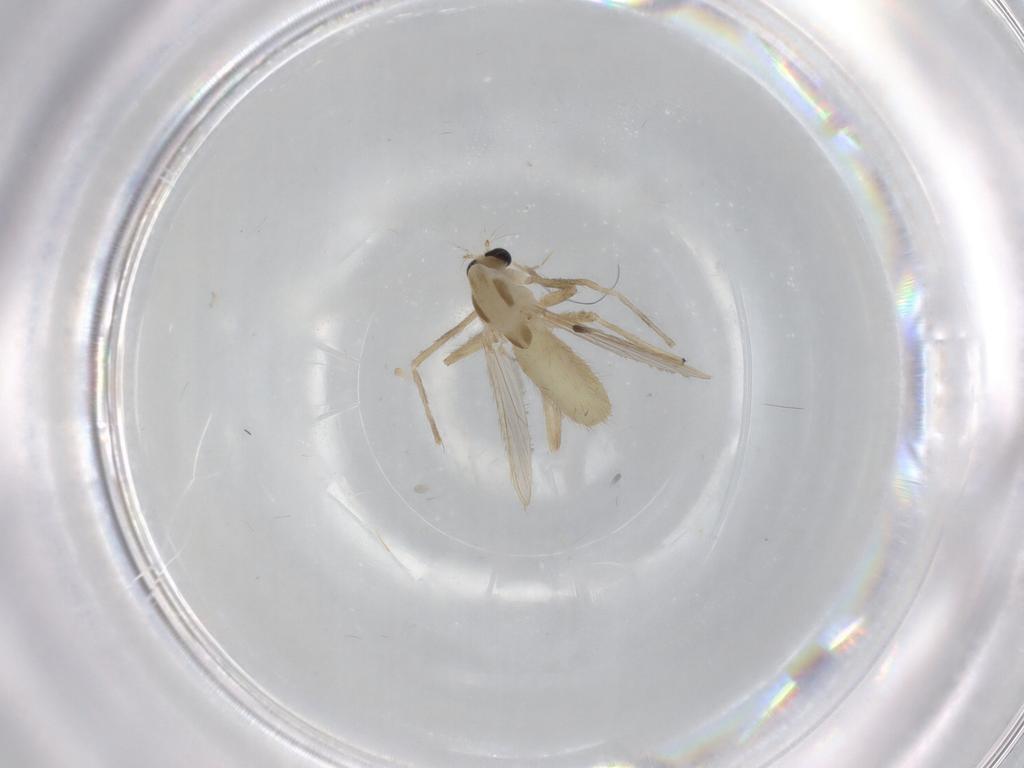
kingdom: Animalia
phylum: Arthropoda
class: Insecta
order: Diptera
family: Chironomidae
